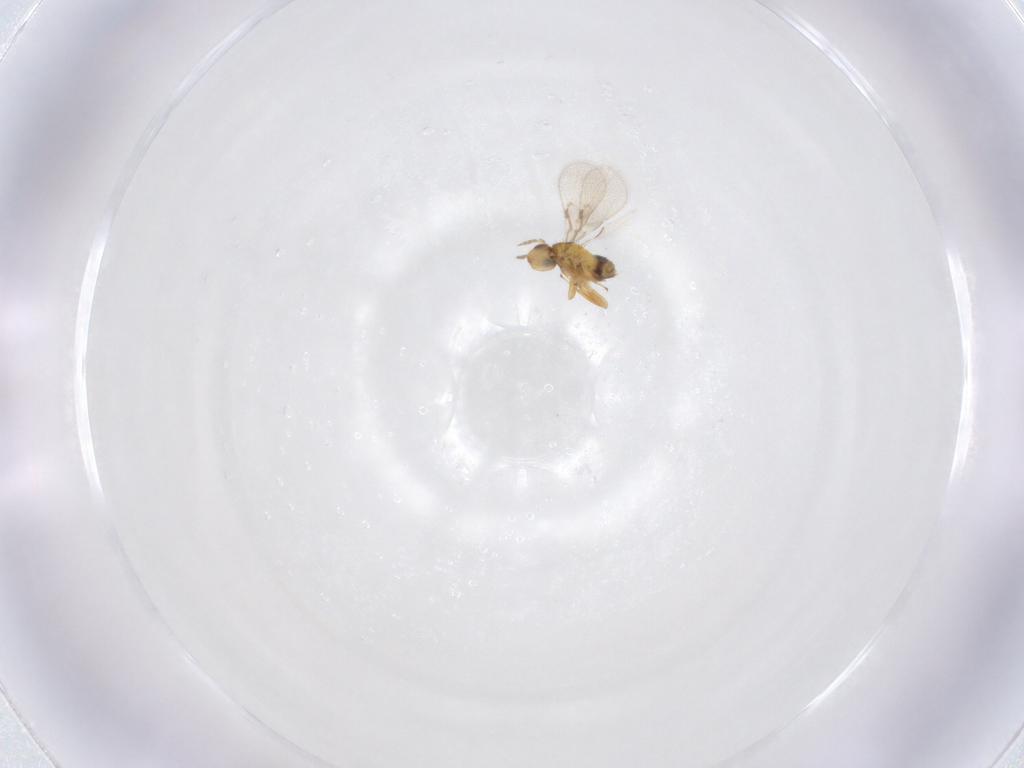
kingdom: Animalia
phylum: Arthropoda
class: Insecta
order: Hymenoptera
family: Trichogrammatidae
